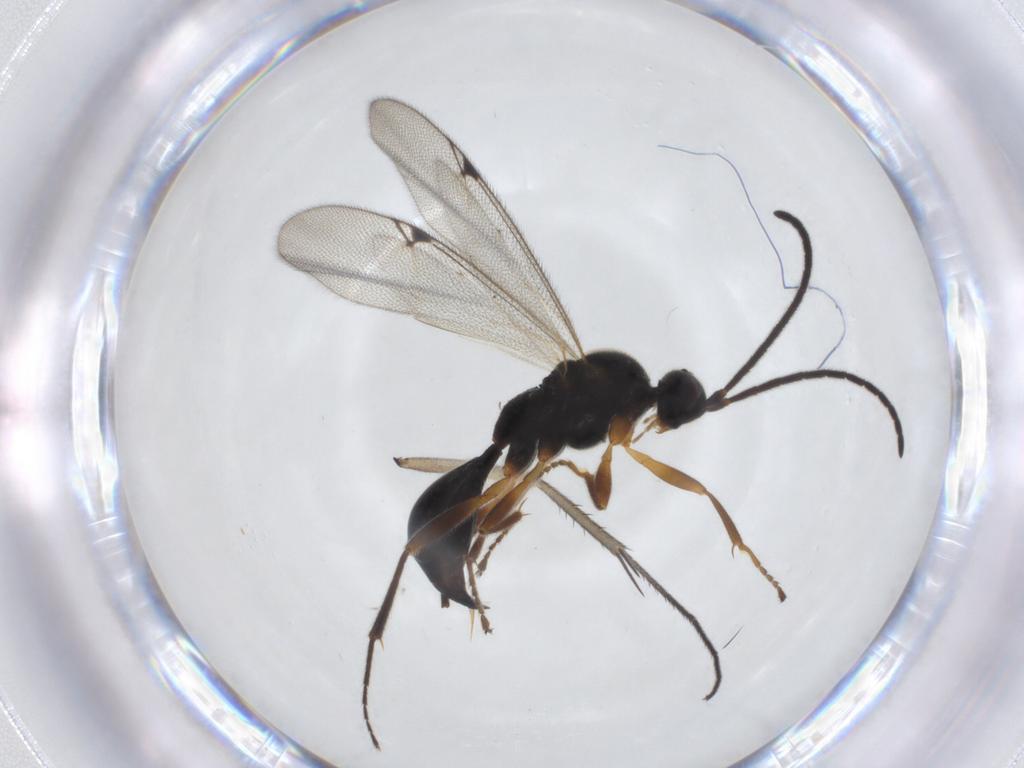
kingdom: Animalia
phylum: Arthropoda
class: Insecta
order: Hymenoptera
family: Proctotrupidae
